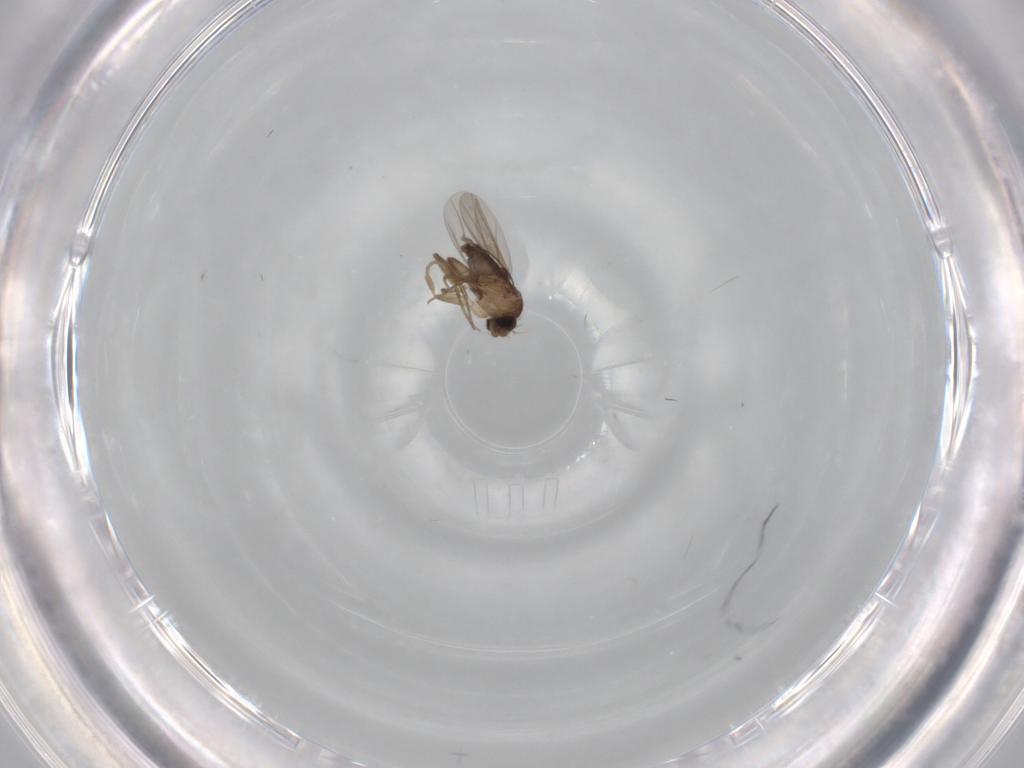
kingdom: Animalia
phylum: Arthropoda
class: Insecta
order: Diptera
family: Phoridae
